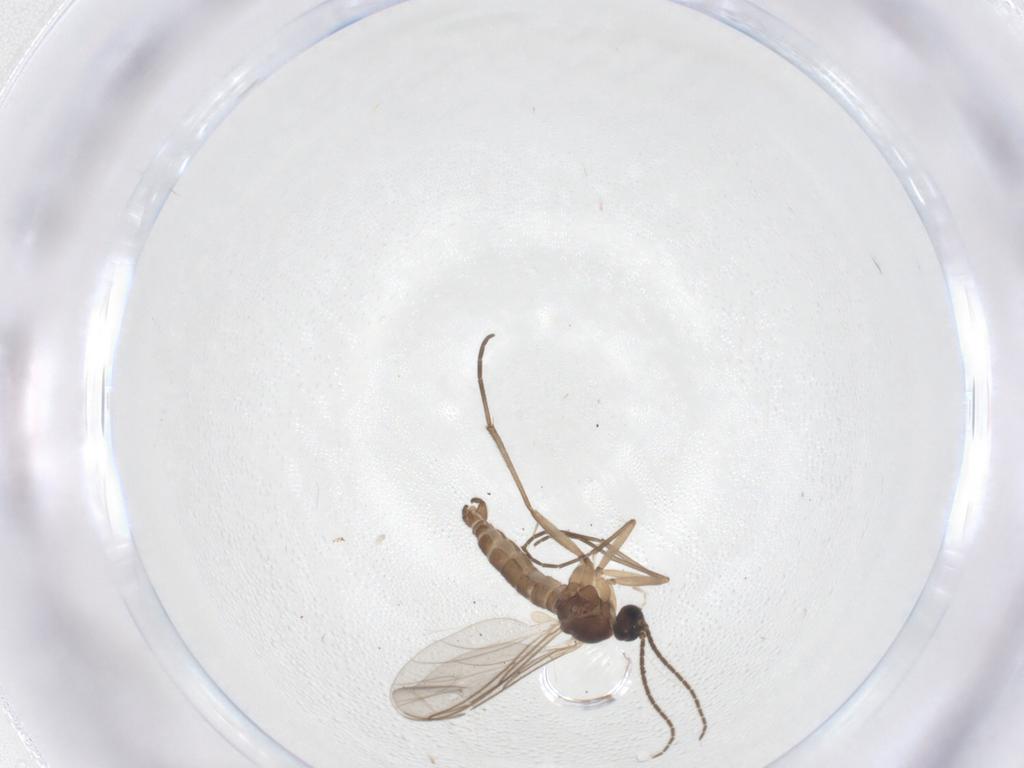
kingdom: Animalia
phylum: Arthropoda
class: Insecta
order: Diptera
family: Sciaridae
